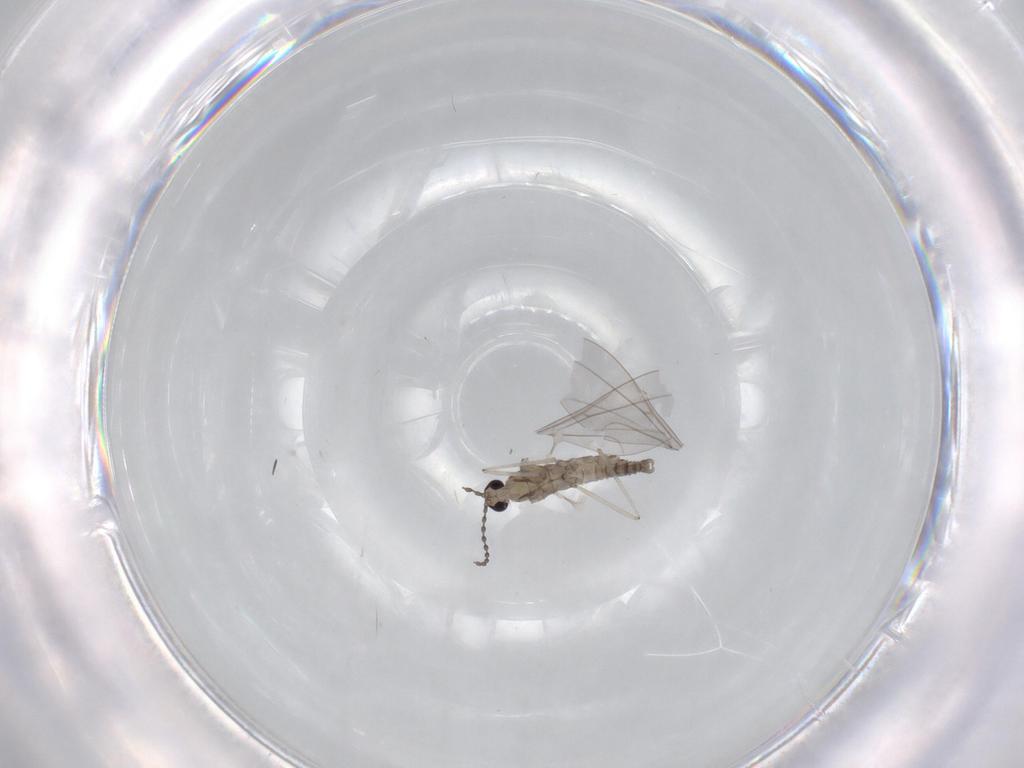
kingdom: Animalia
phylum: Arthropoda
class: Insecta
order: Diptera
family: Cecidomyiidae
